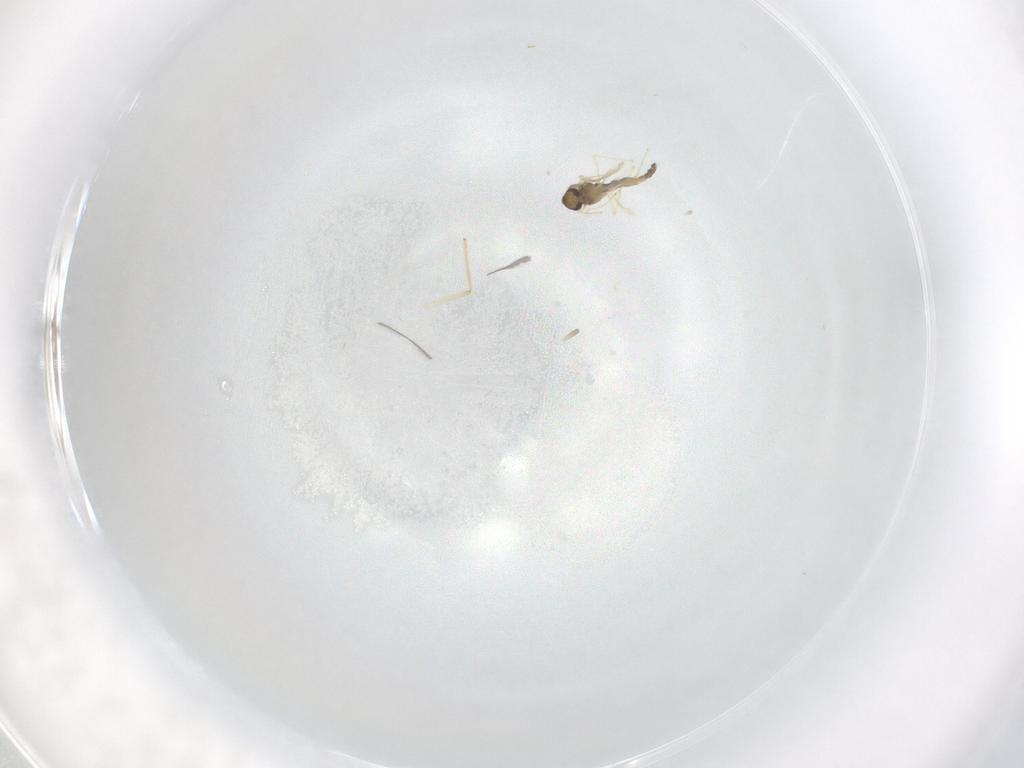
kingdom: Animalia
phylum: Arthropoda
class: Insecta
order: Diptera
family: Chironomidae
